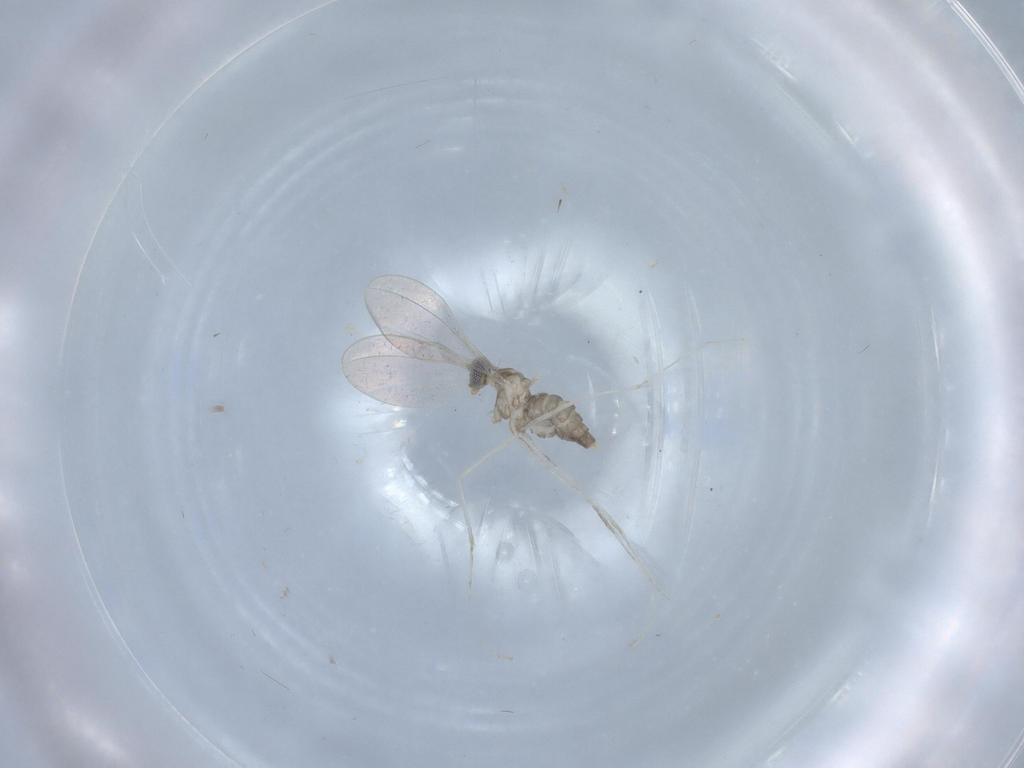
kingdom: Animalia
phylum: Arthropoda
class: Insecta
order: Diptera
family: Cecidomyiidae
